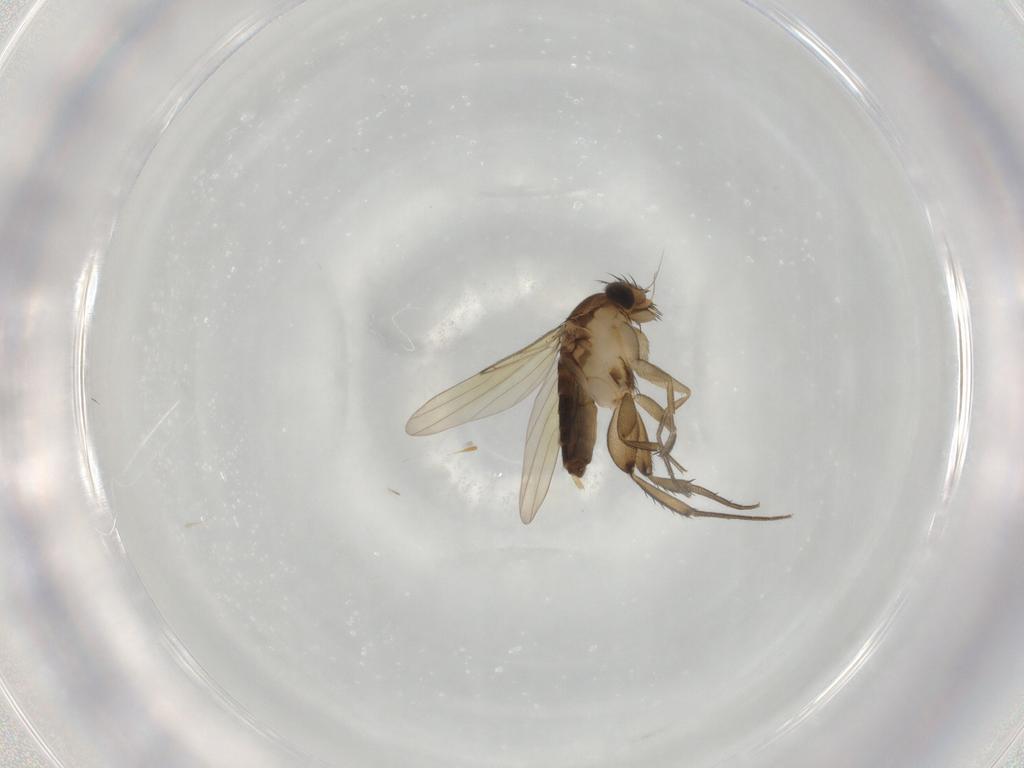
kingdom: Animalia
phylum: Arthropoda
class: Insecta
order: Diptera
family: Phoridae
